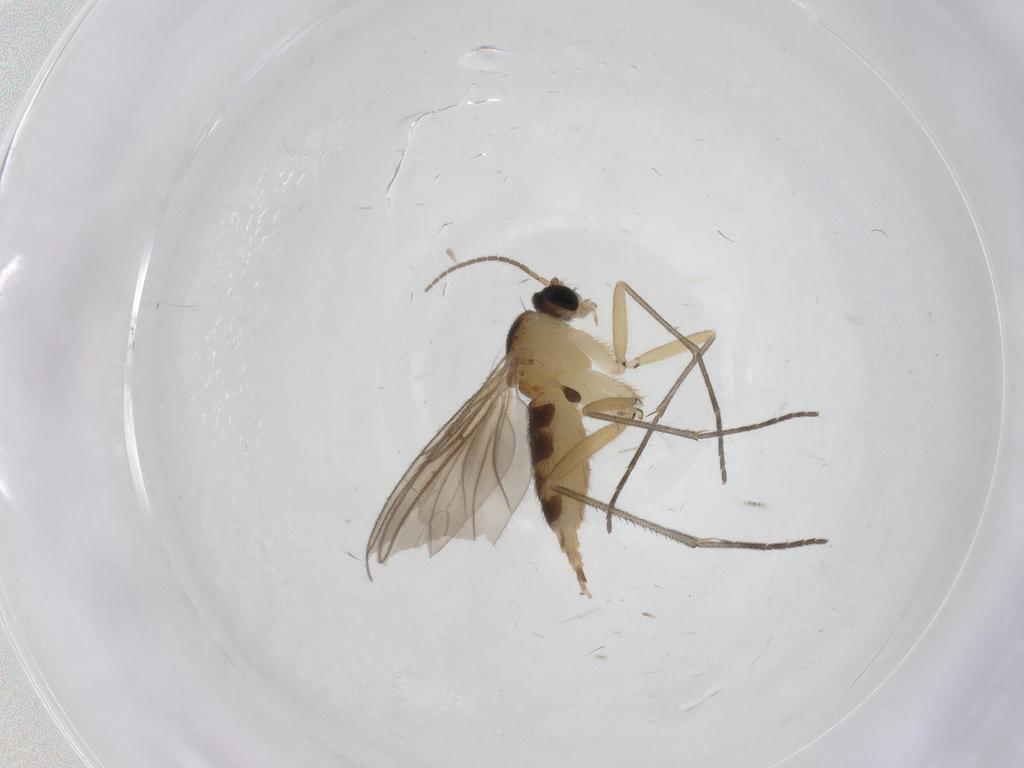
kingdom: Animalia
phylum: Arthropoda
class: Insecta
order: Diptera
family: Sciaridae
